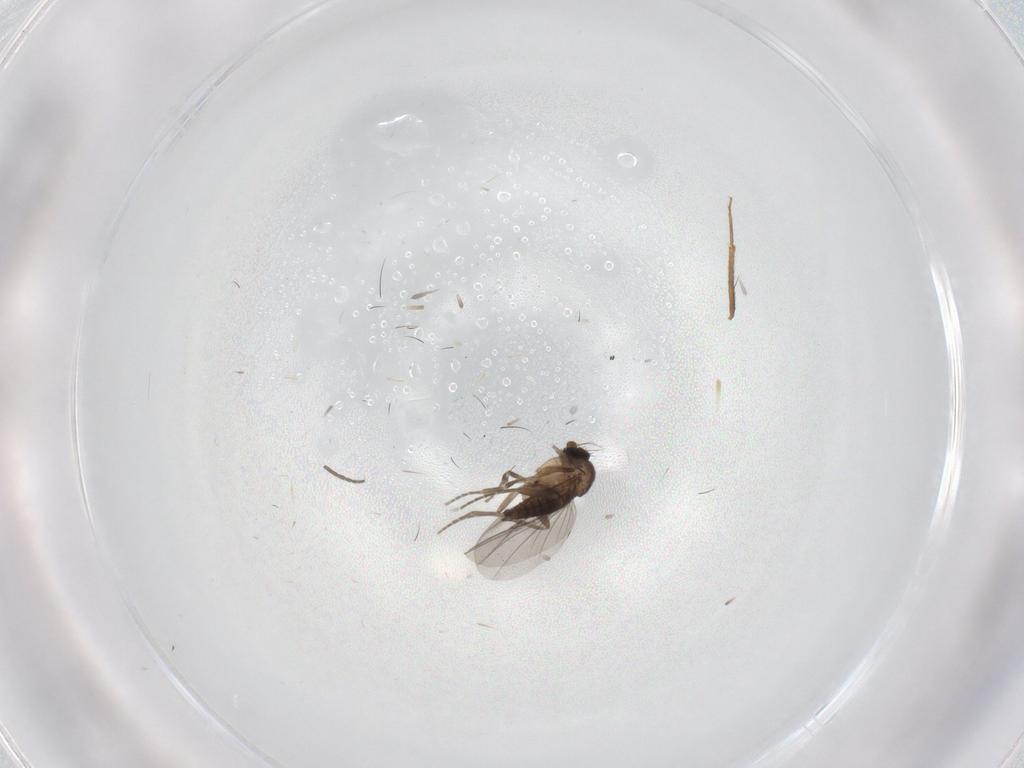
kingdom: Animalia
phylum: Arthropoda
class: Insecta
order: Diptera
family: Sciaridae
